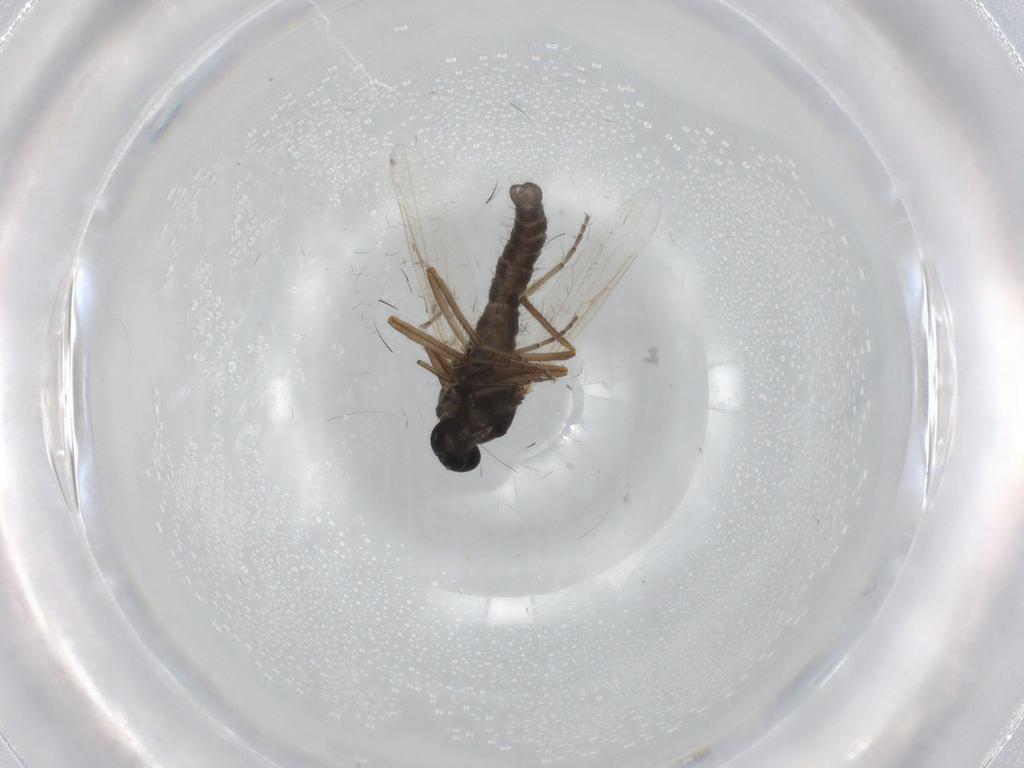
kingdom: Animalia
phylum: Arthropoda
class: Insecta
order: Diptera
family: Ceratopogonidae
